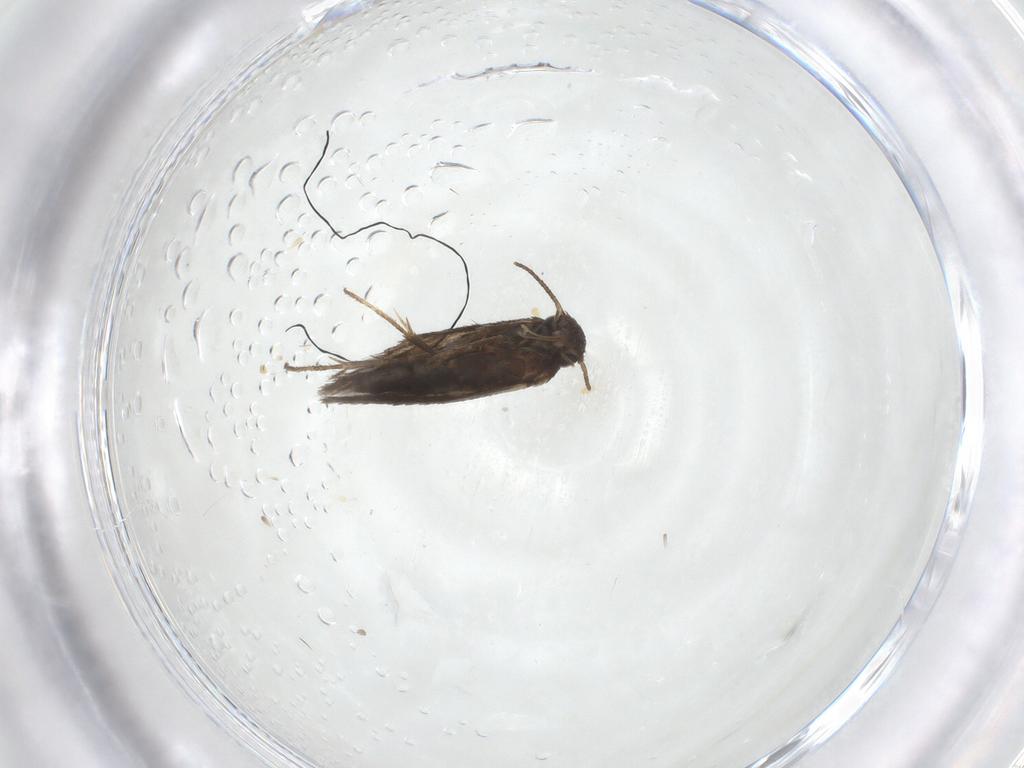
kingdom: Animalia
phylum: Arthropoda
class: Insecta
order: Lepidoptera
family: Heliozelidae
